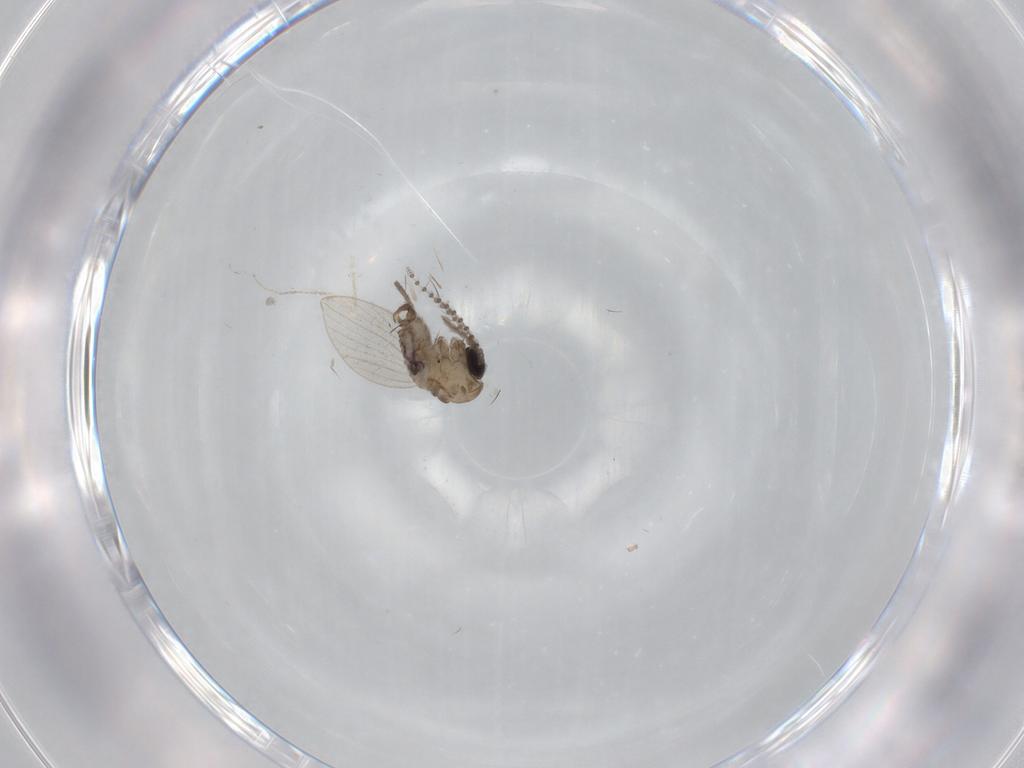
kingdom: Animalia
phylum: Arthropoda
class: Insecta
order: Diptera
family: Psychodidae
